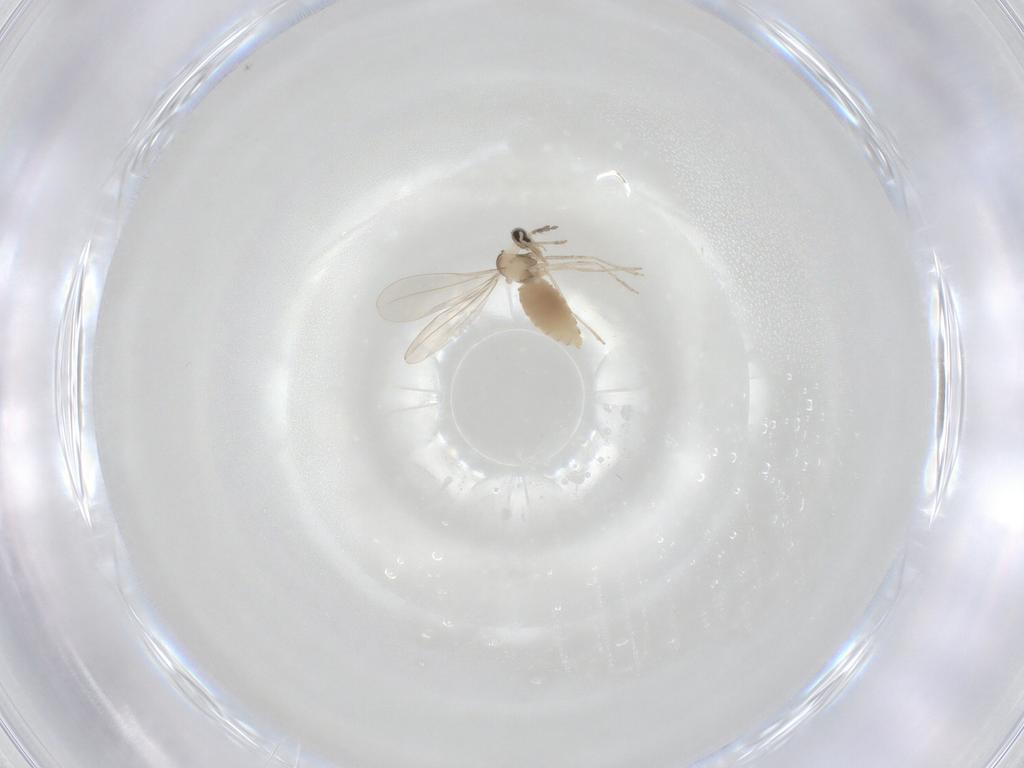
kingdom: Animalia
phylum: Arthropoda
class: Insecta
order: Diptera
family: Cecidomyiidae
